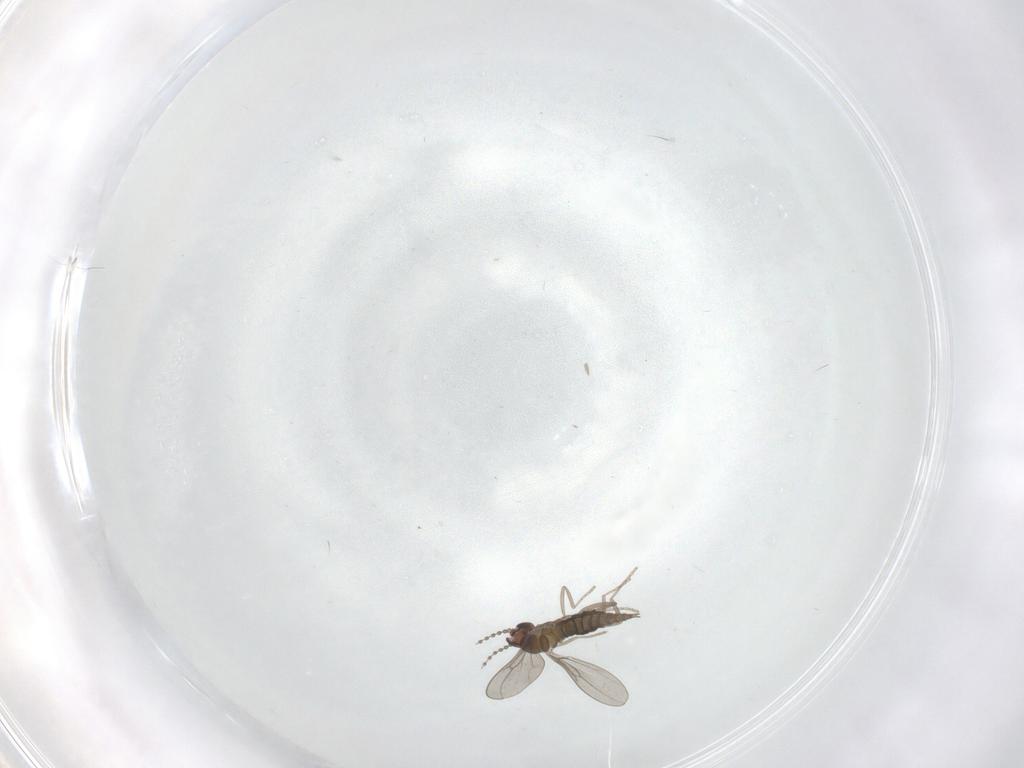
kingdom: Animalia
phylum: Arthropoda
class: Insecta
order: Diptera
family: Cecidomyiidae
